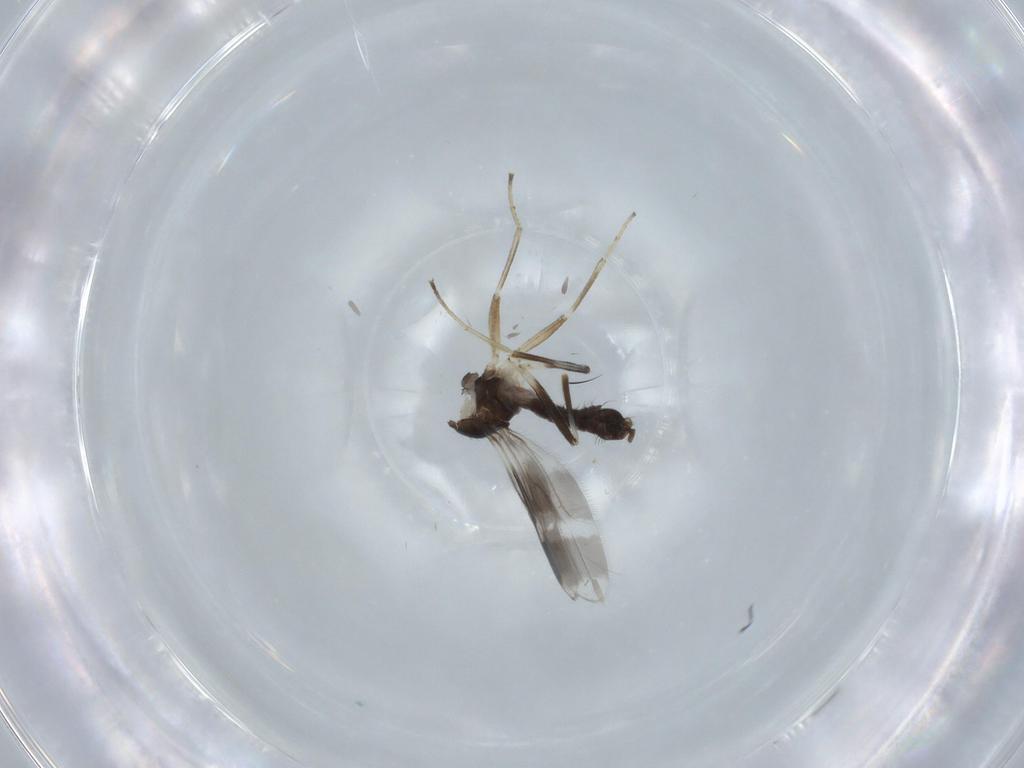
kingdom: Animalia
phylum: Arthropoda
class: Insecta
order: Diptera
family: Hybotidae
